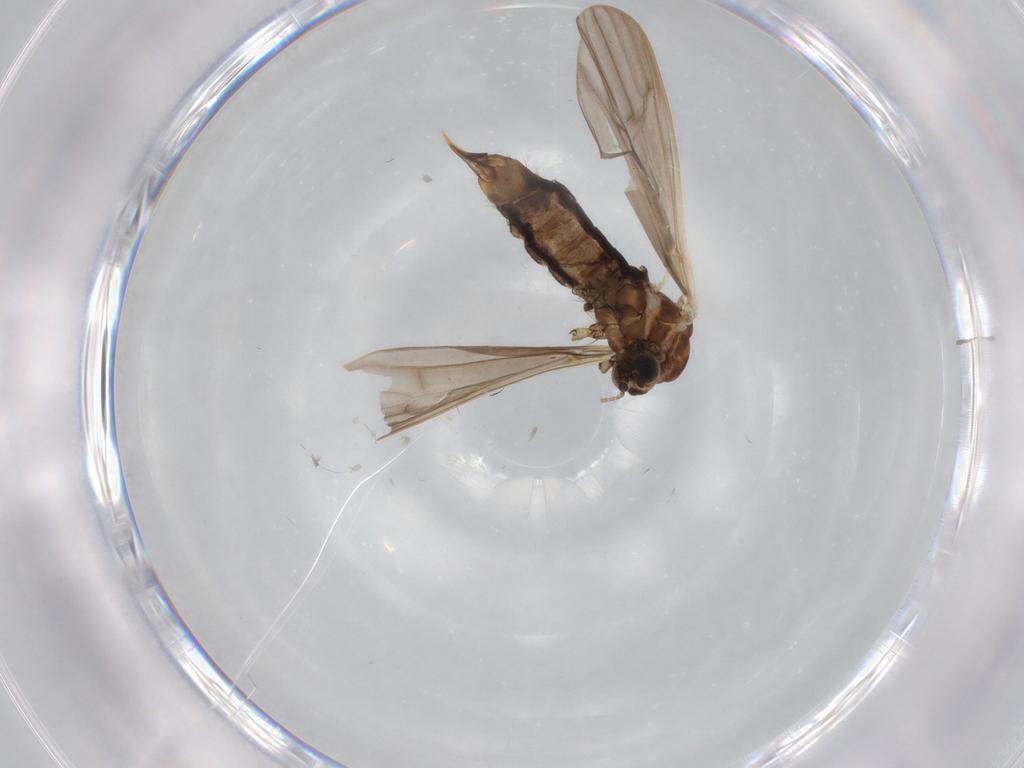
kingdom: Animalia
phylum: Arthropoda
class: Insecta
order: Diptera
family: Limoniidae
